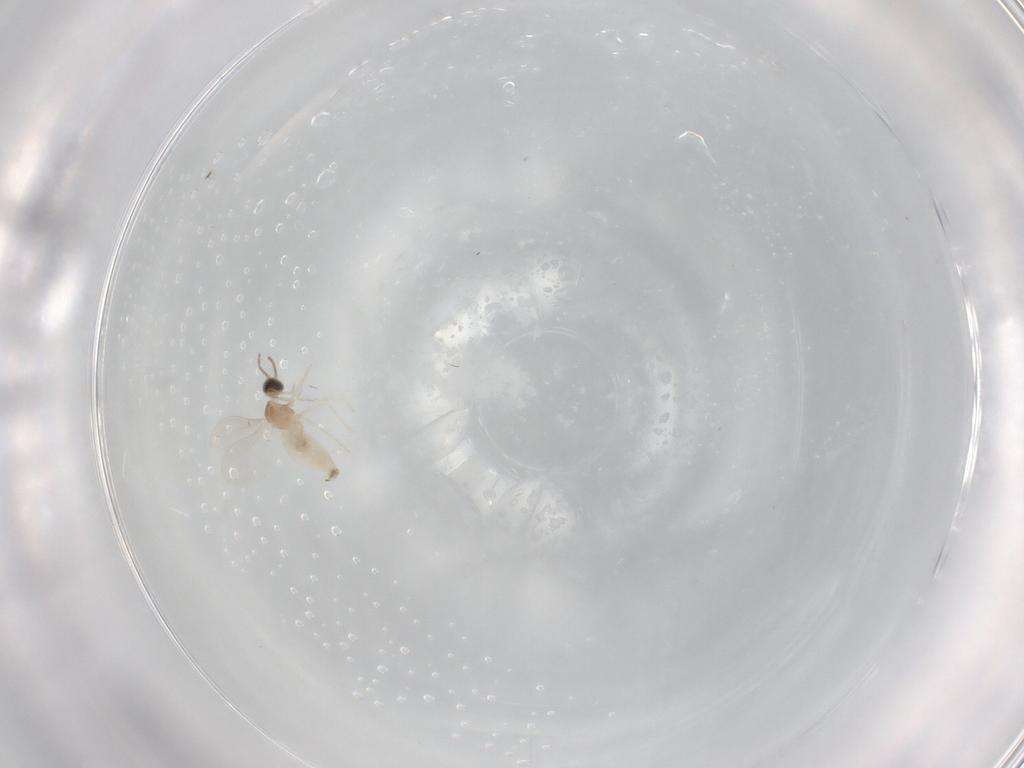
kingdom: Animalia
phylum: Arthropoda
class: Insecta
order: Diptera
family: Cecidomyiidae
